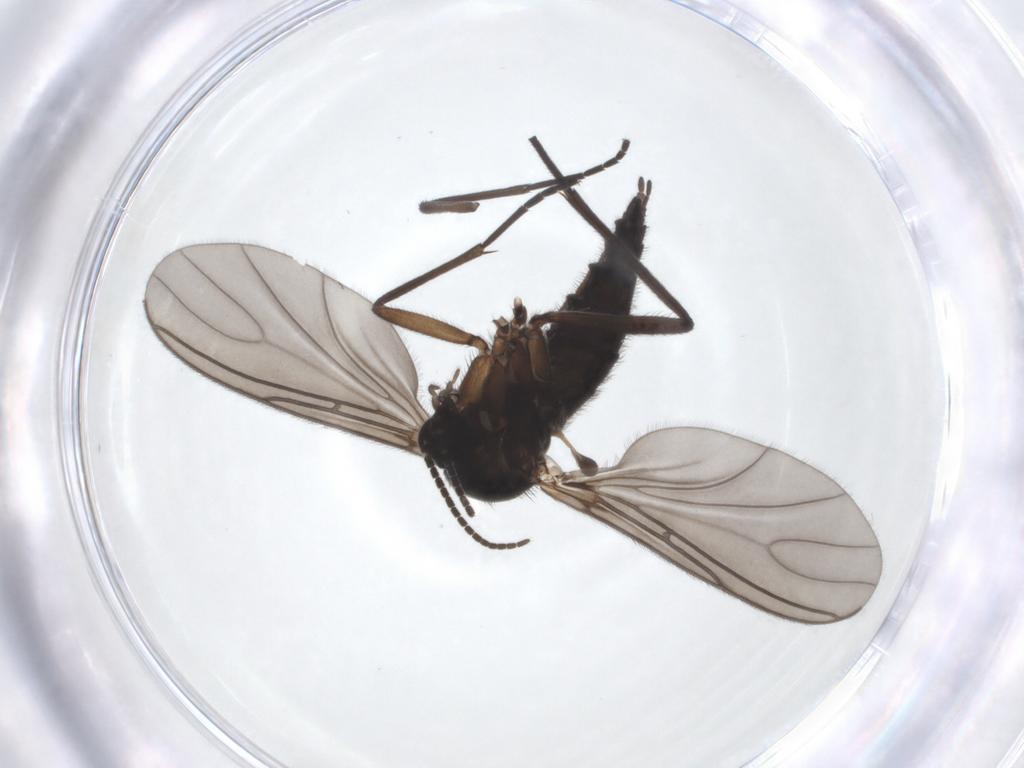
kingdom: Animalia
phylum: Arthropoda
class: Insecta
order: Diptera
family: Sciaridae
